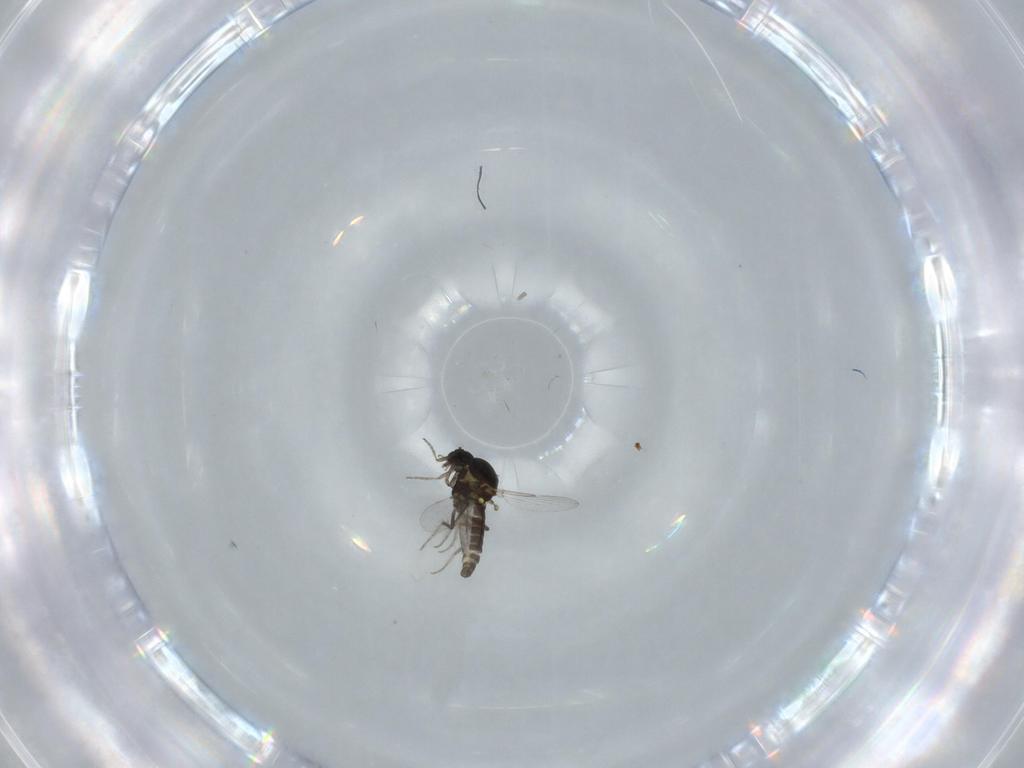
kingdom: Animalia
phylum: Arthropoda
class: Insecta
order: Diptera
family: Ceratopogonidae
